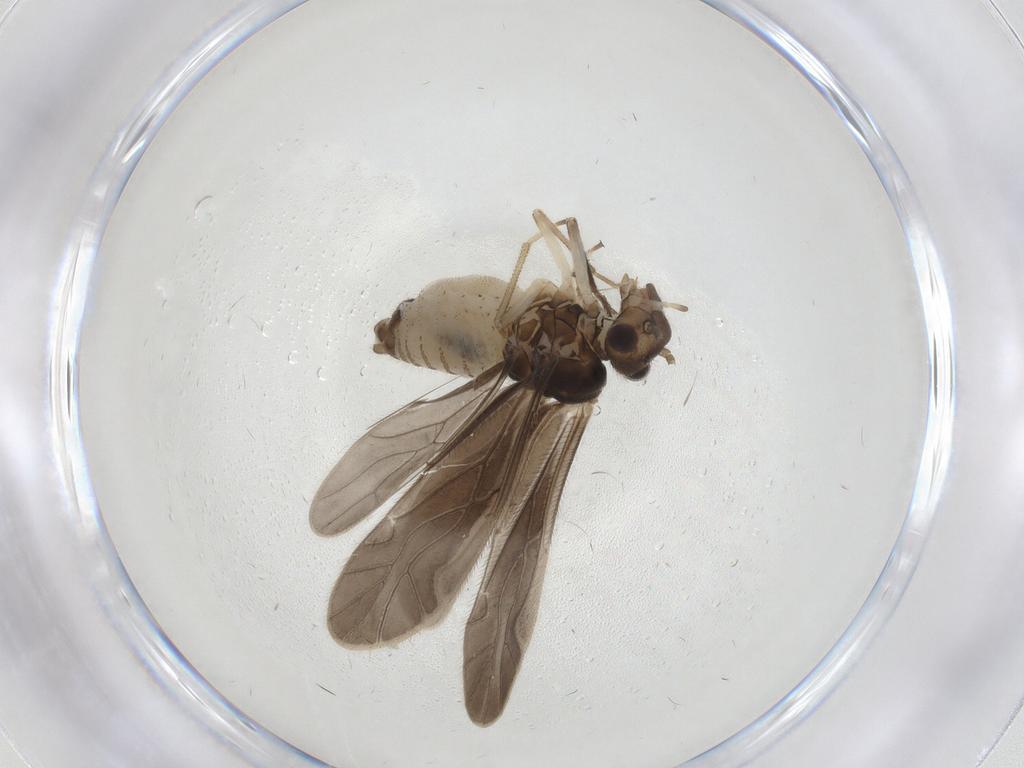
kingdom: Animalia
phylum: Arthropoda
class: Insecta
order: Psocodea
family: Caeciliusidae
